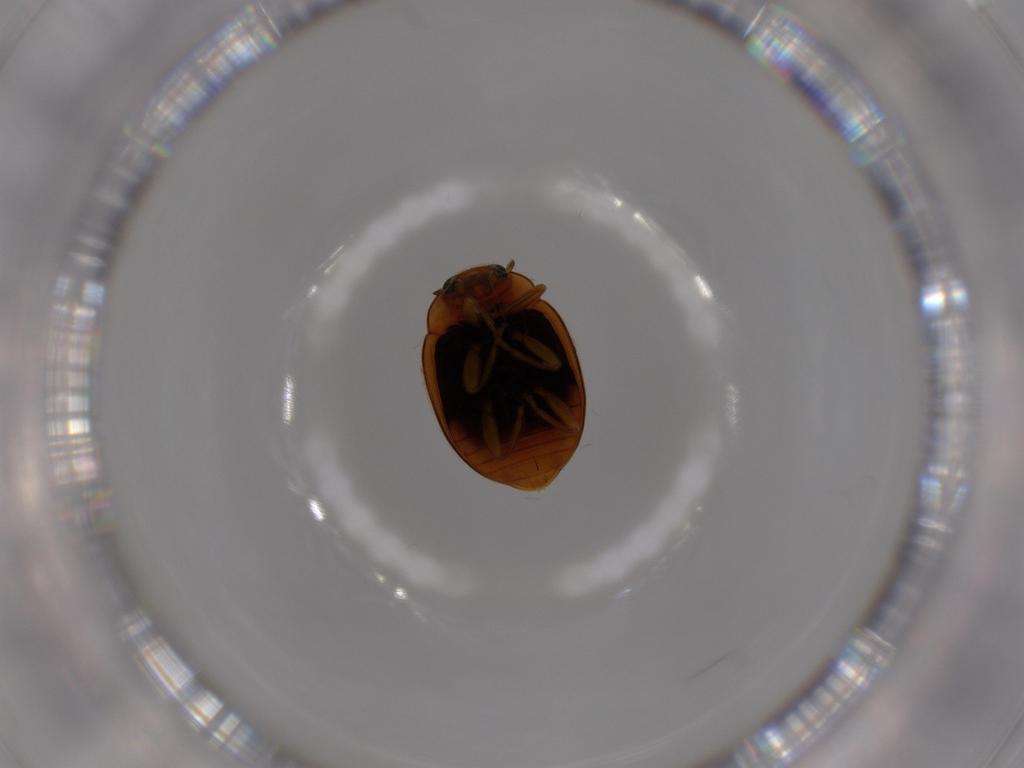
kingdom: Animalia
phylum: Arthropoda
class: Insecta
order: Coleoptera
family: Coccinellidae
